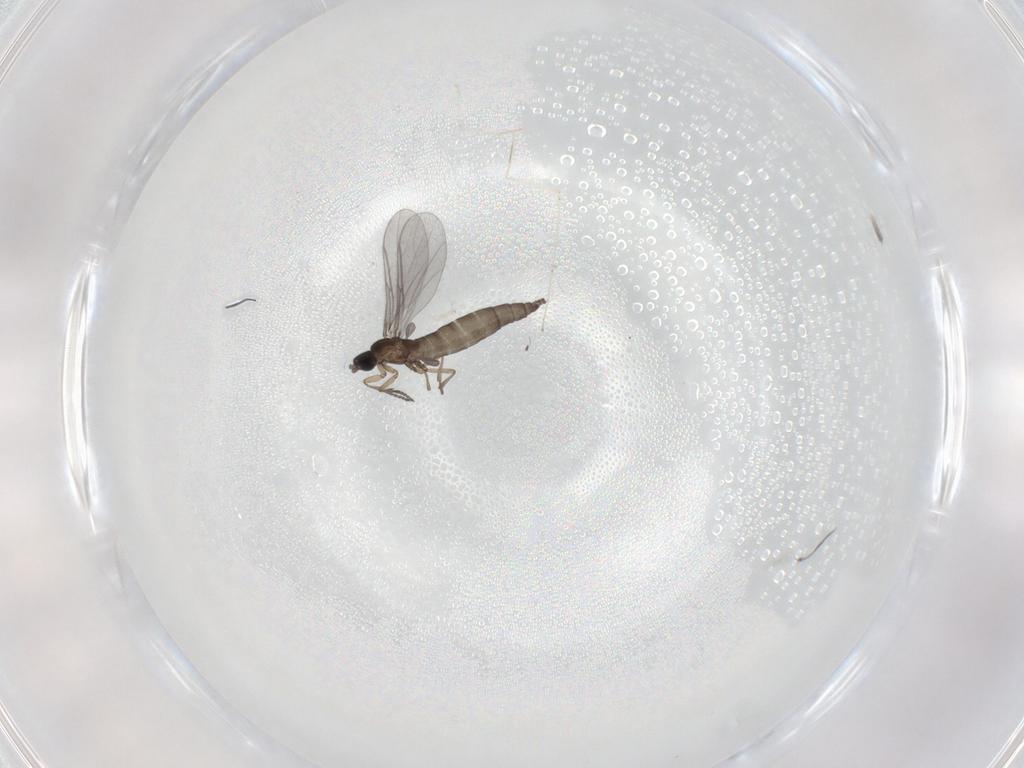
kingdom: Animalia
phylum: Arthropoda
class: Insecta
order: Diptera
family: Sciaridae
